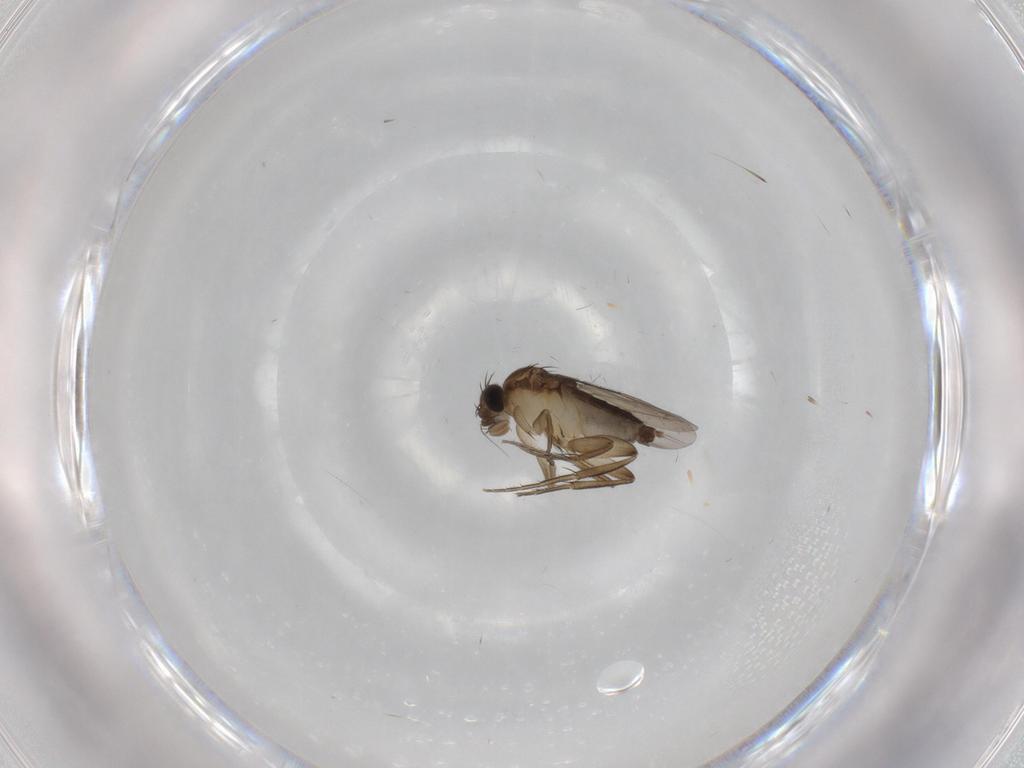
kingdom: Animalia
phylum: Arthropoda
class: Insecta
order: Diptera
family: Phoridae
